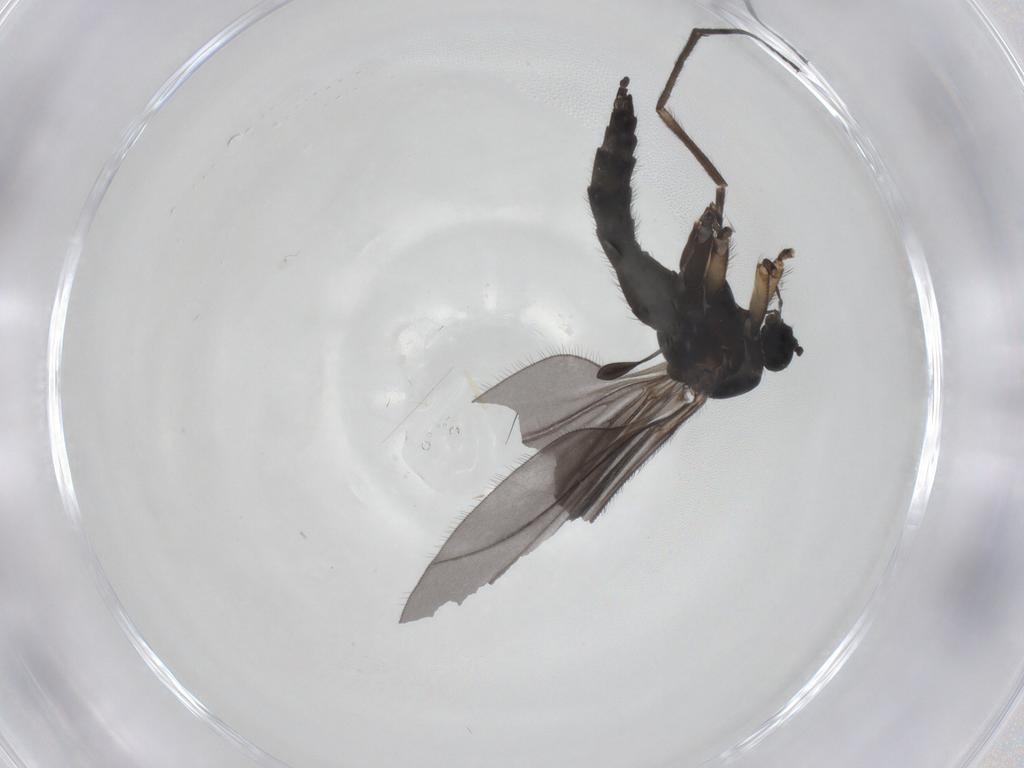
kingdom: Animalia
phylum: Arthropoda
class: Insecta
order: Diptera
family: Sciaridae
